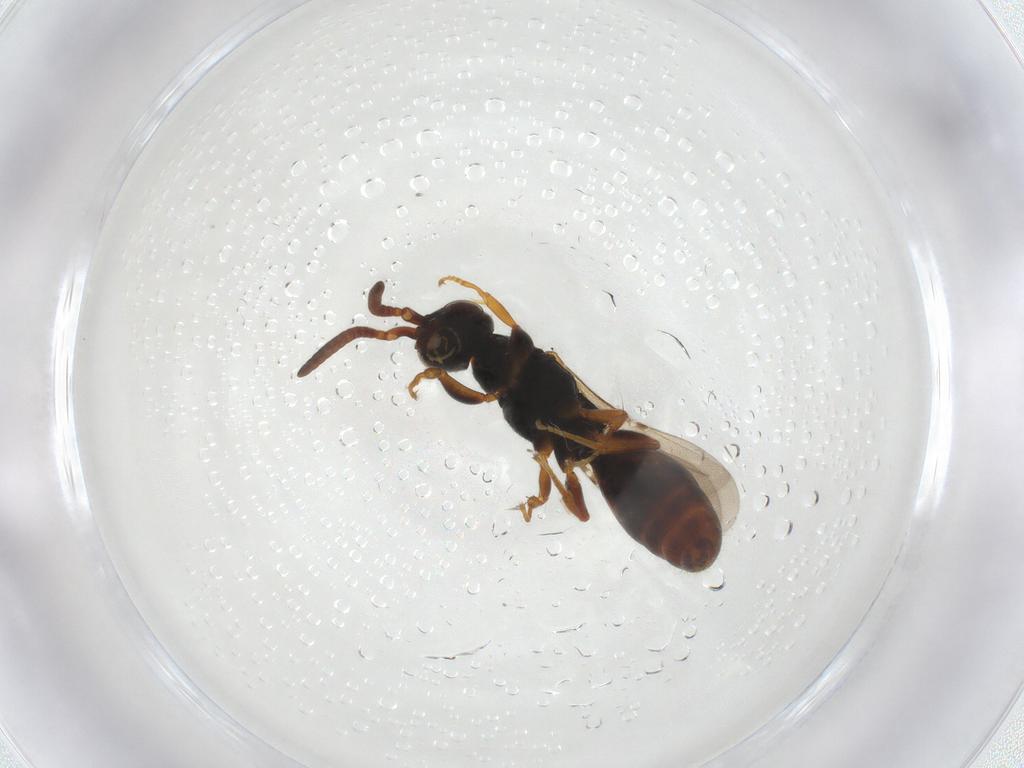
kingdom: Animalia
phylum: Arthropoda
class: Insecta
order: Hymenoptera
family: Bethylidae
